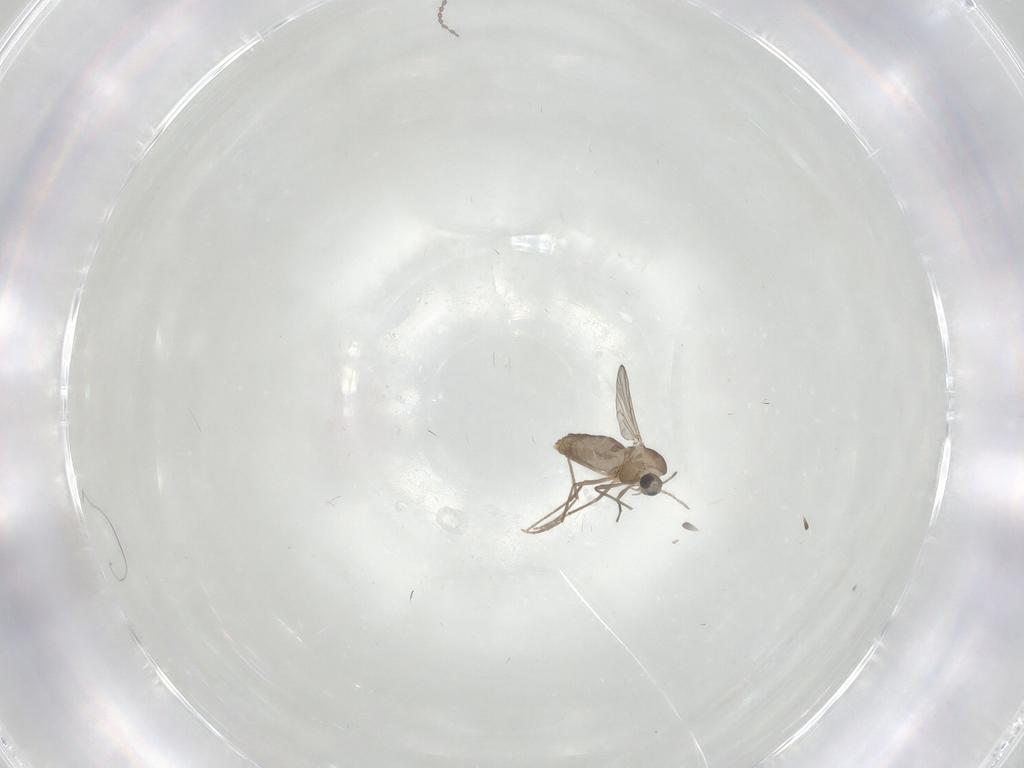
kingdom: Animalia
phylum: Arthropoda
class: Insecta
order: Diptera
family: Chironomidae
